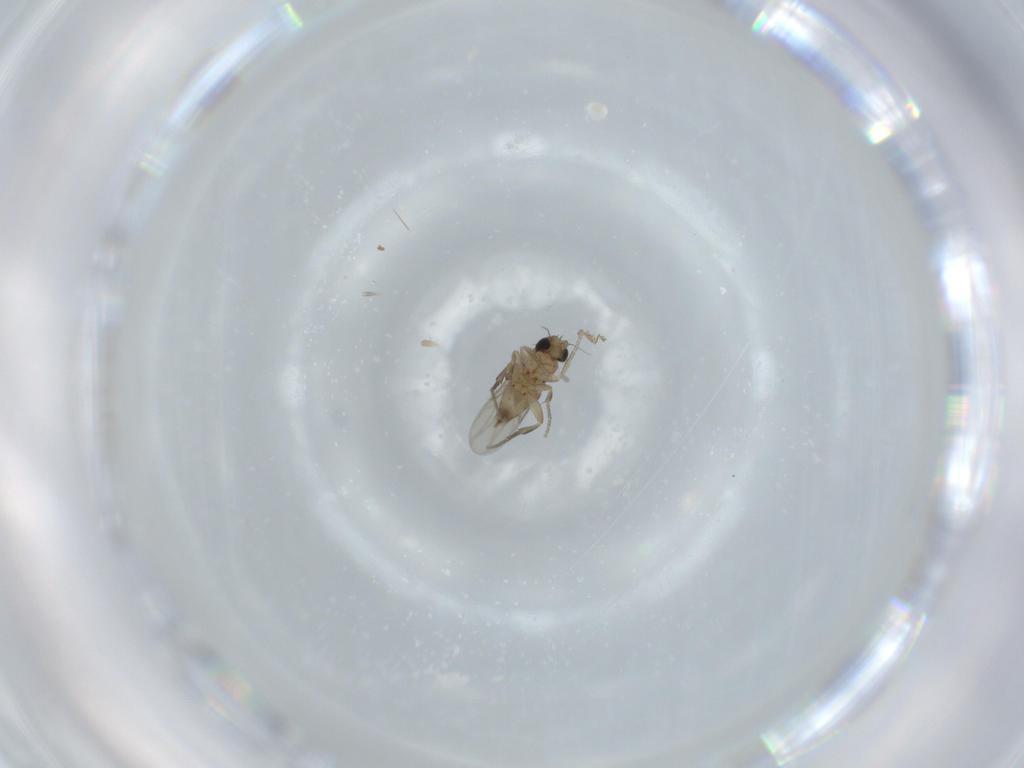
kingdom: Animalia
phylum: Arthropoda
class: Insecta
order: Diptera
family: Phoridae
